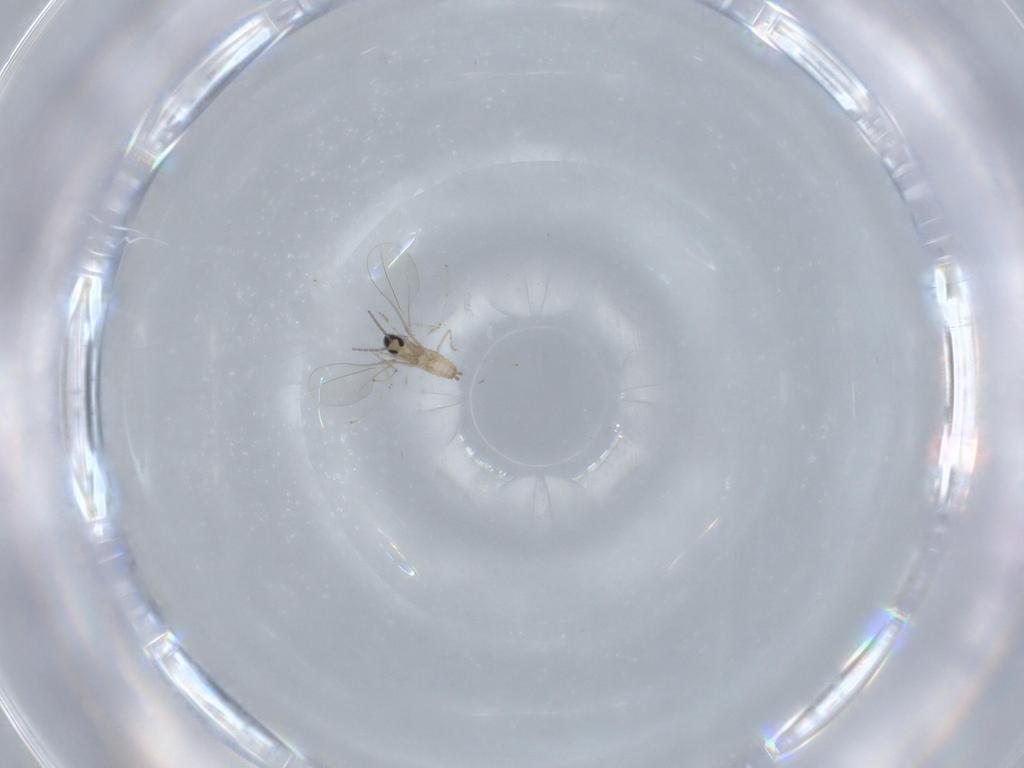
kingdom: Animalia
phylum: Arthropoda
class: Insecta
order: Diptera
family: Cecidomyiidae
